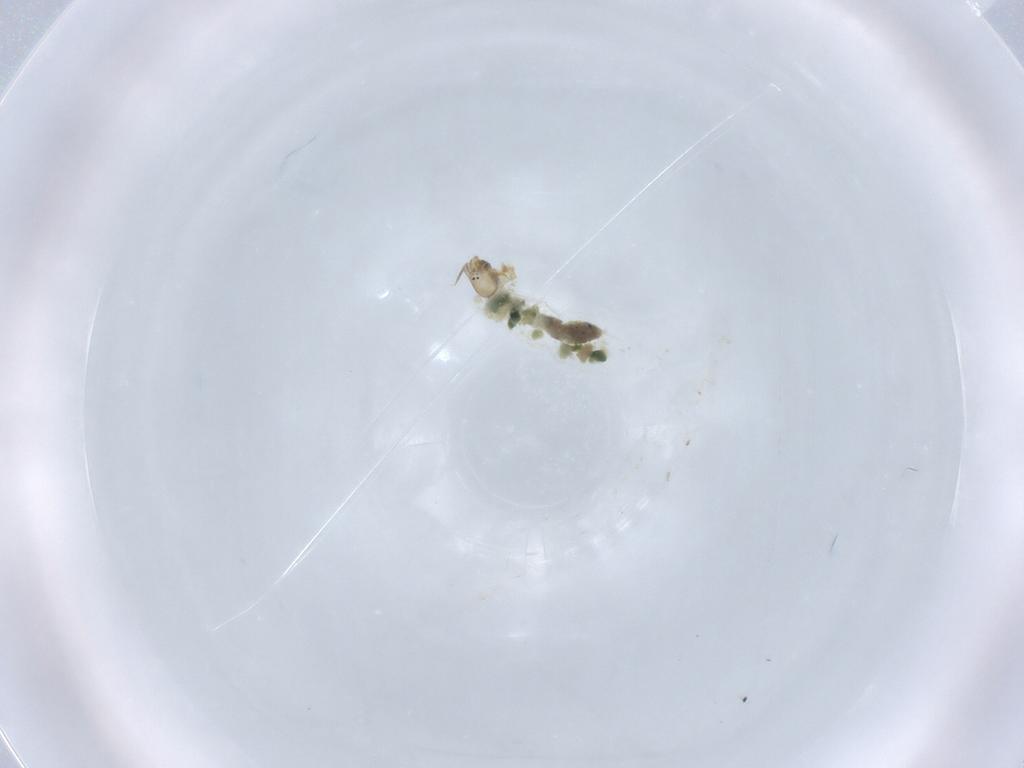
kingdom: Animalia
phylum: Arthropoda
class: Insecta
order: Diptera
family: Chironomidae
